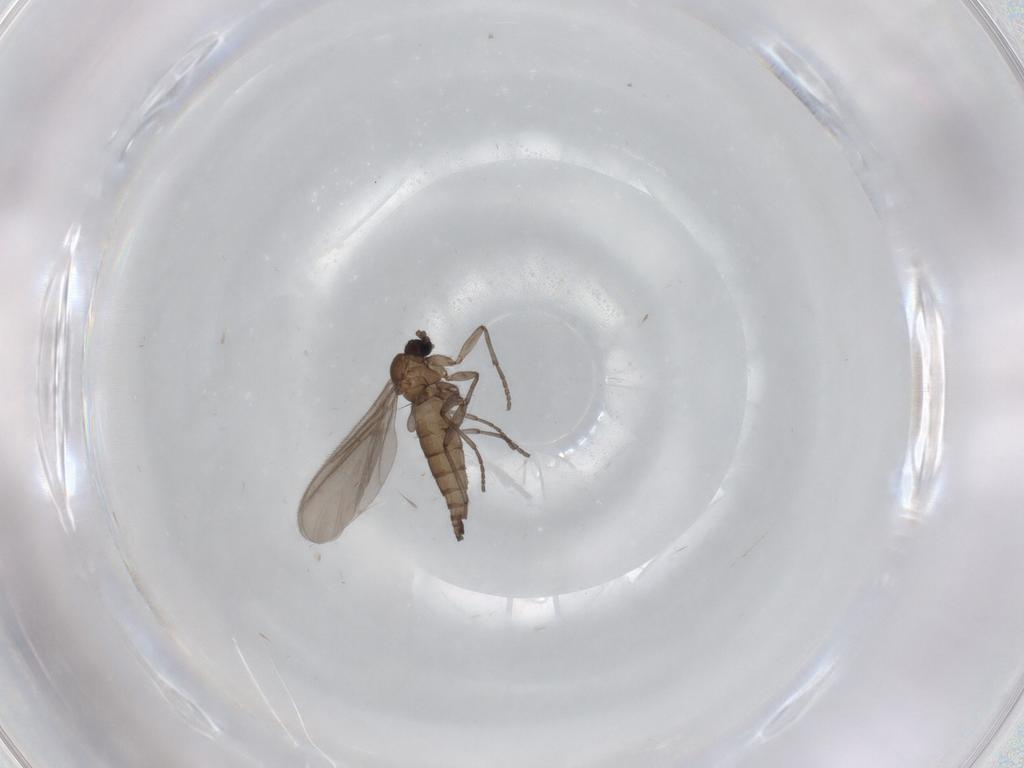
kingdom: Animalia
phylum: Arthropoda
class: Insecta
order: Diptera
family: Sciaridae
